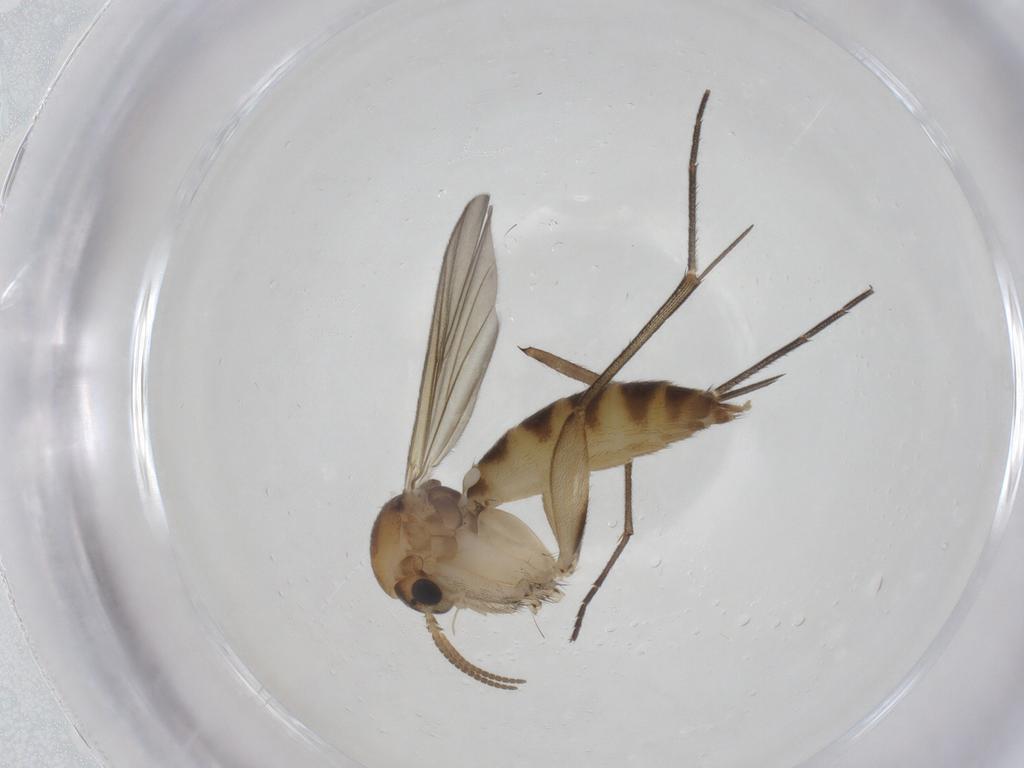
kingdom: Animalia
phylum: Arthropoda
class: Insecta
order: Diptera
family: Mycetophilidae
